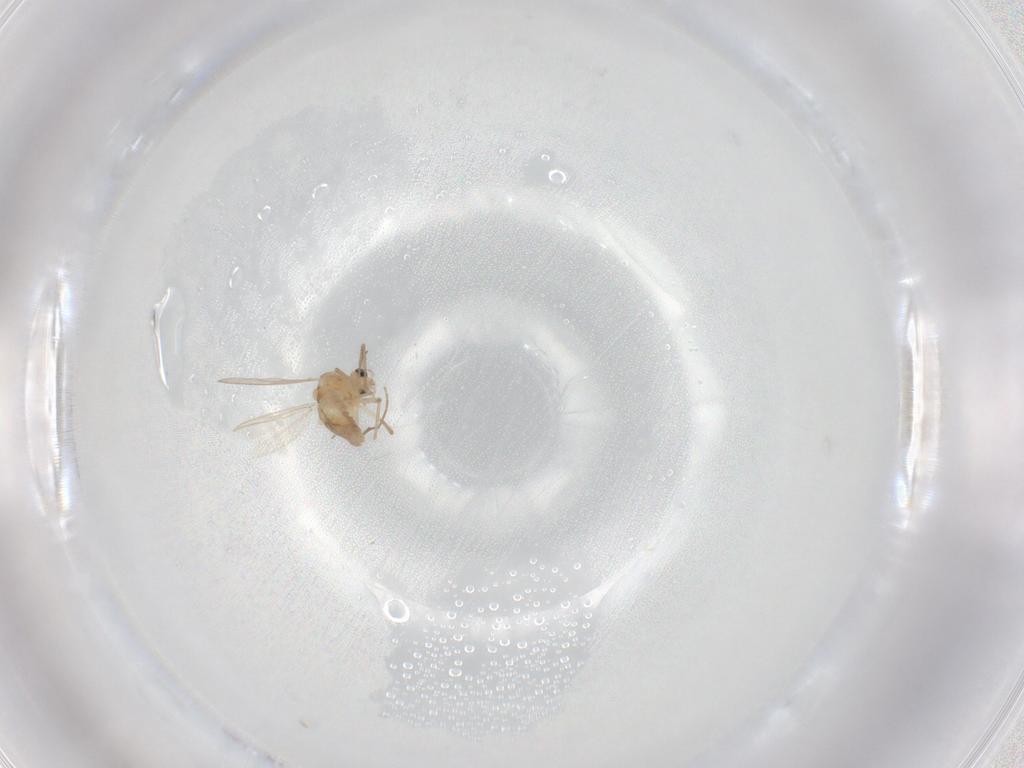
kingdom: Animalia
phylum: Arthropoda
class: Insecta
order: Diptera
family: Chironomidae
